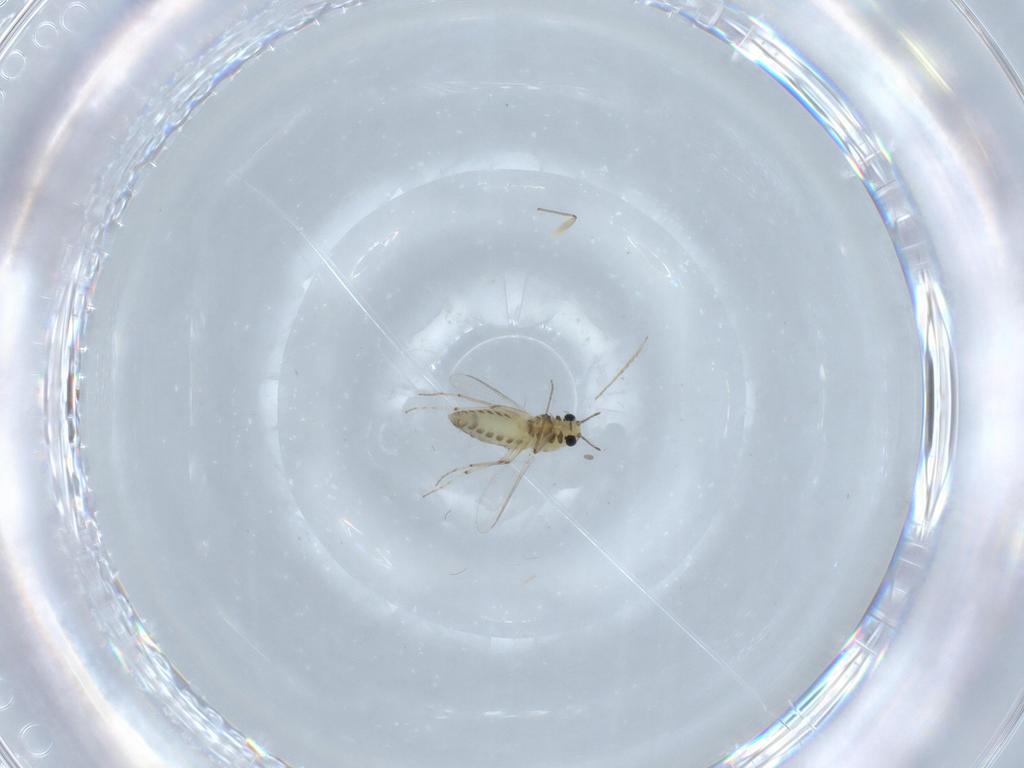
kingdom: Animalia
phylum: Arthropoda
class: Insecta
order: Diptera
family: Chironomidae
